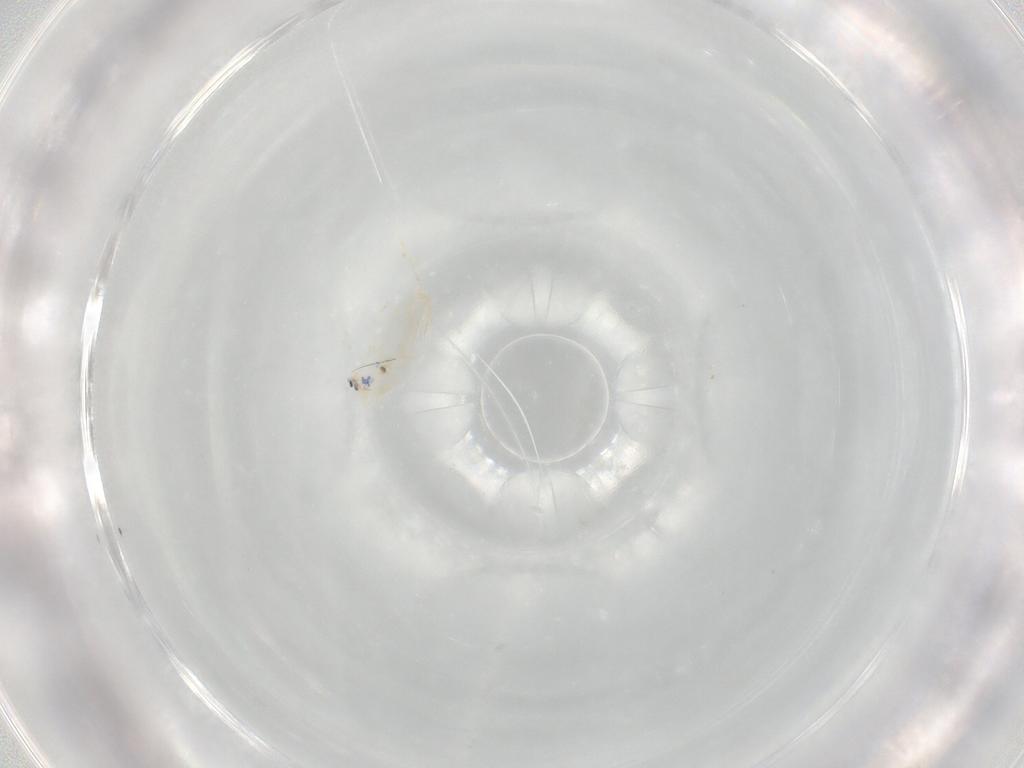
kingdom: Animalia
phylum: Arthropoda
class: Collembola
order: Entomobryomorpha
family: Entomobryidae
